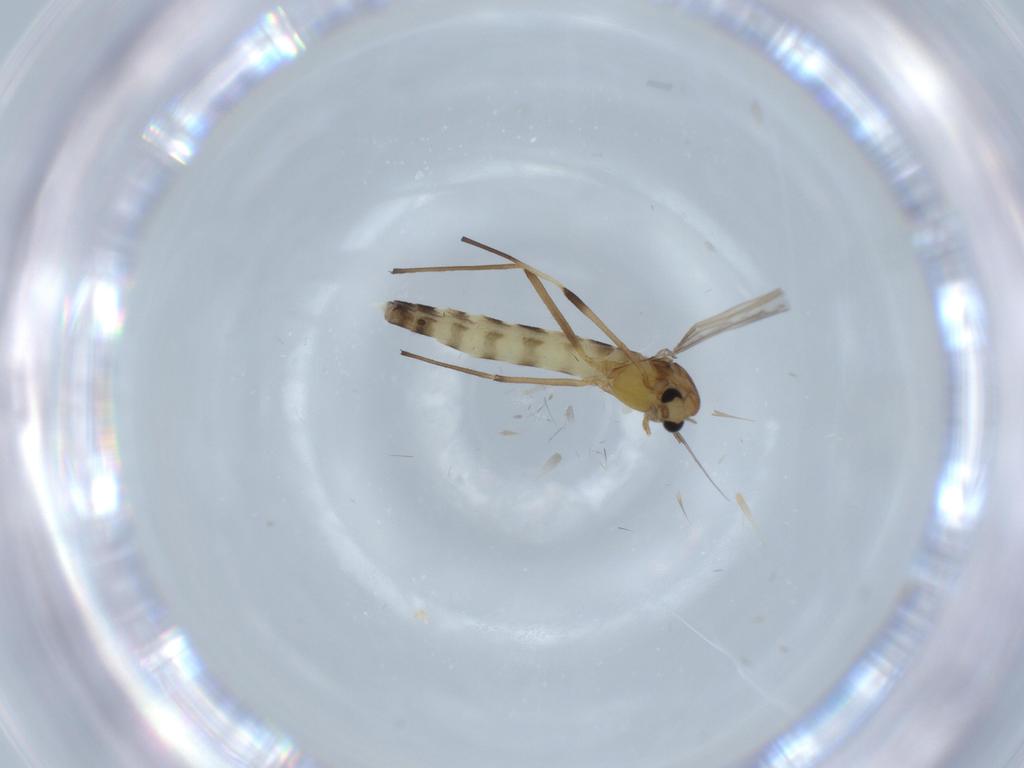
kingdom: Animalia
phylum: Arthropoda
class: Insecta
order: Diptera
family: Chironomidae
